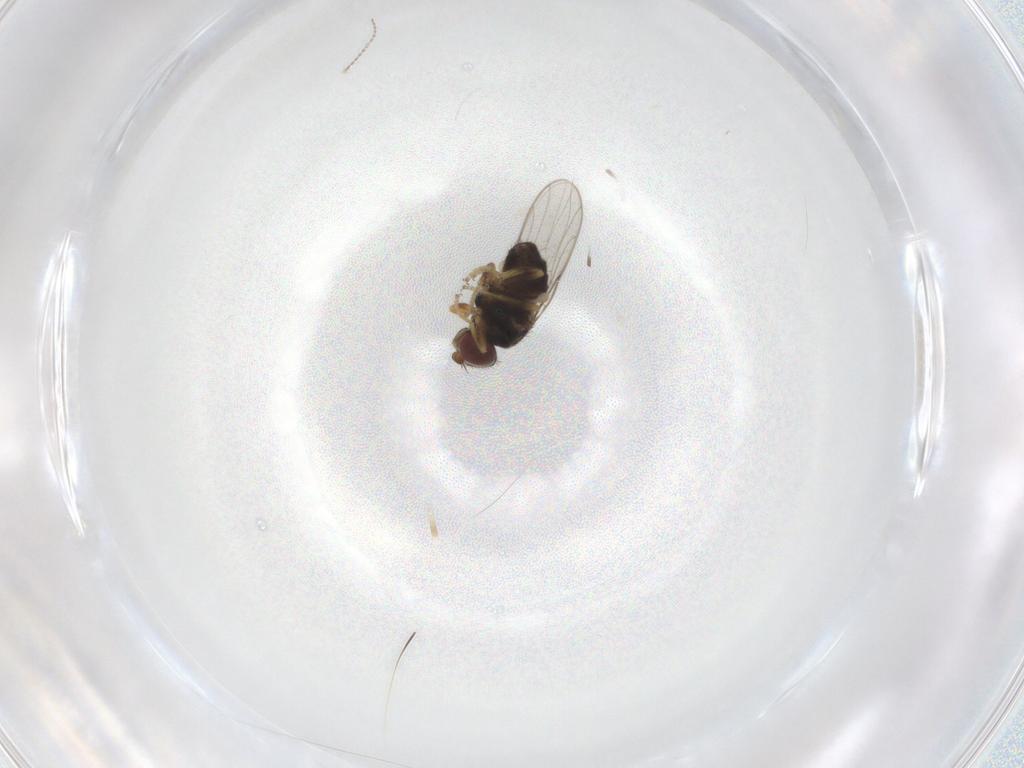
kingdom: Animalia
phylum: Arthropoda
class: Insecta
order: Diptera
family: Chloropidae
